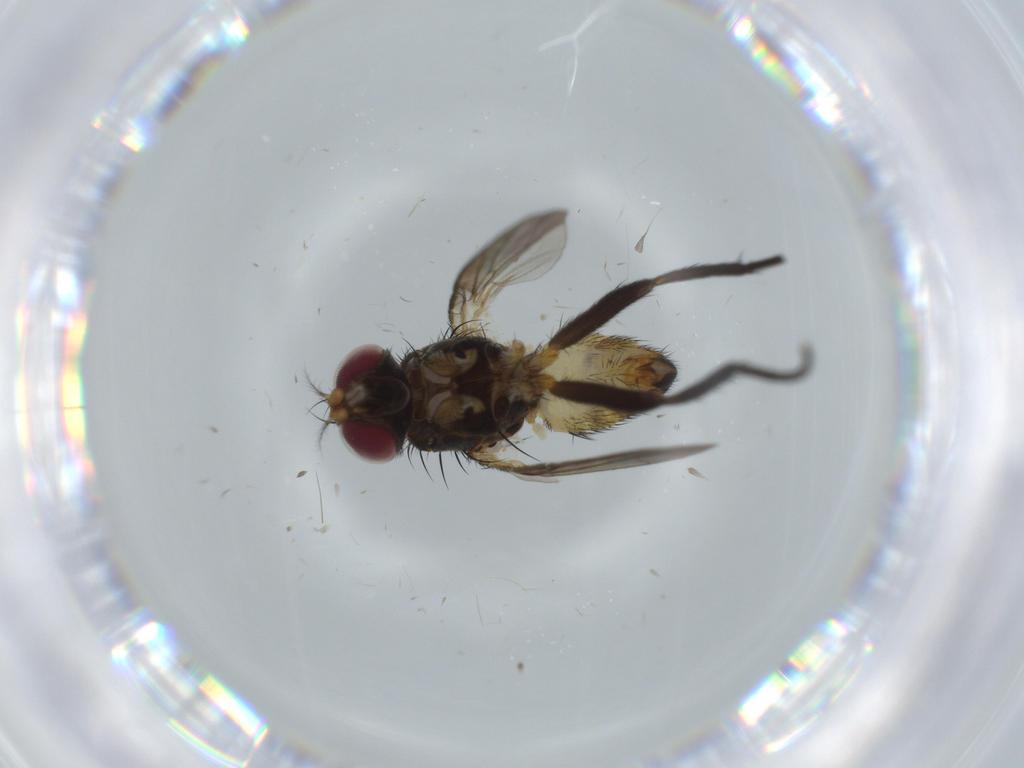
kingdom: Animalia
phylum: Arthropoda
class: Insecta
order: Diptera
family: Anthomyiidae
